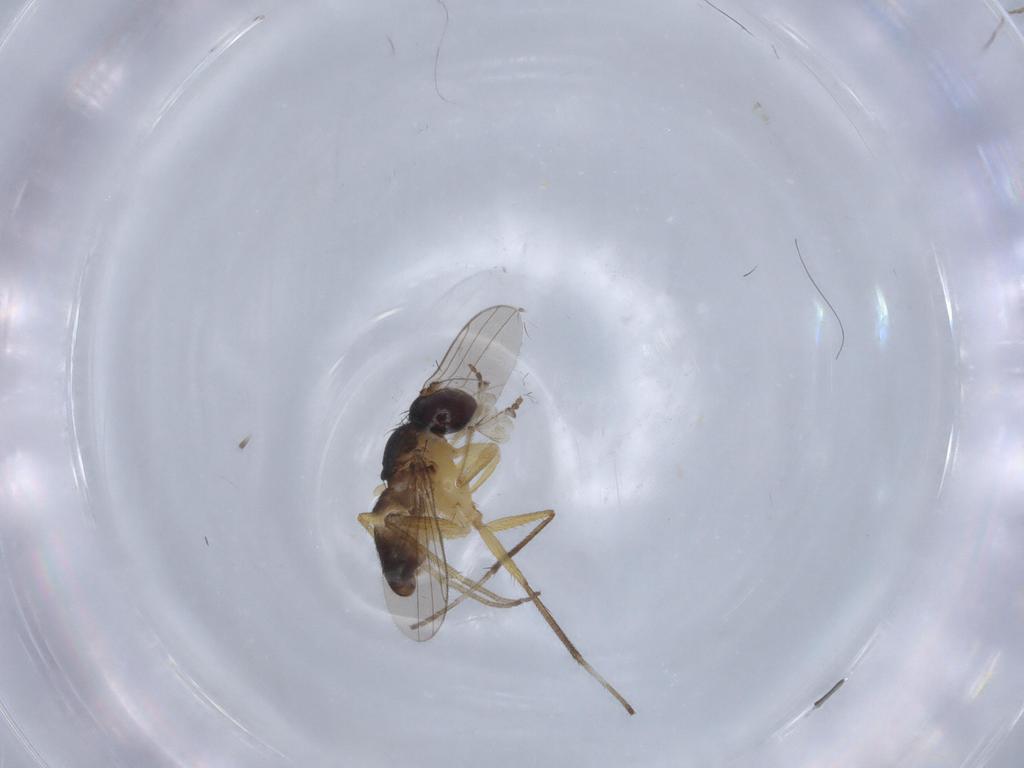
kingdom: Animalia
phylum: Arthropoda
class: Insecta
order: Diptera
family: Dolichopodidae
